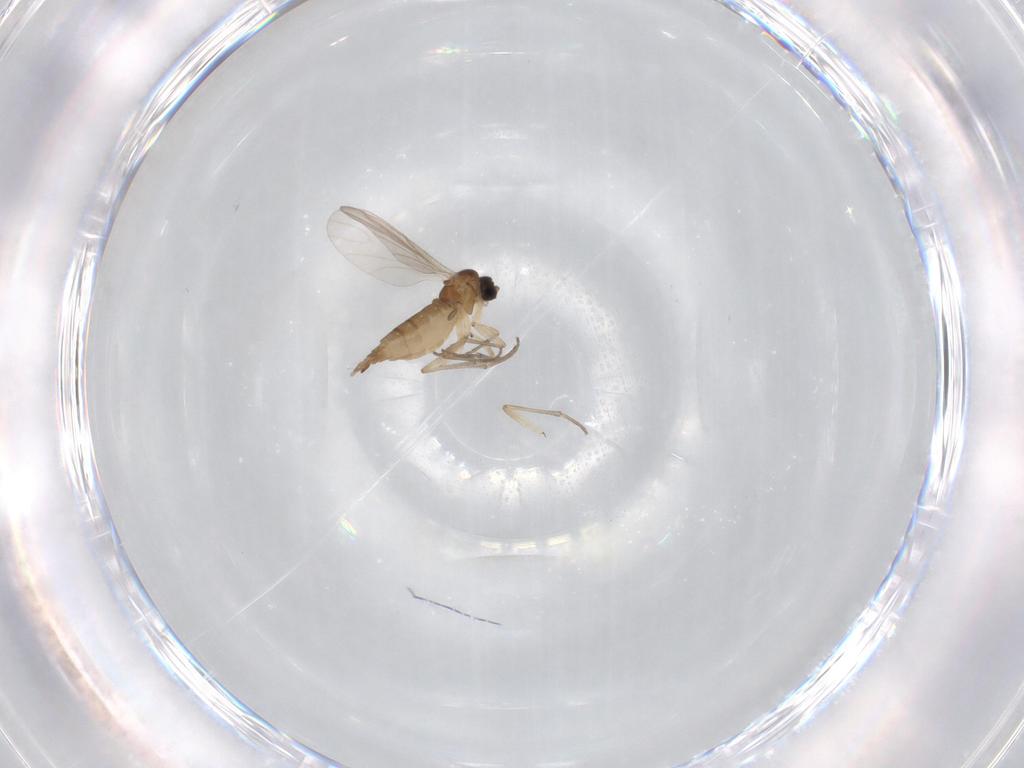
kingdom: Animalia
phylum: Arthropoda
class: Insecta
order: Diptera
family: Sciaridae
